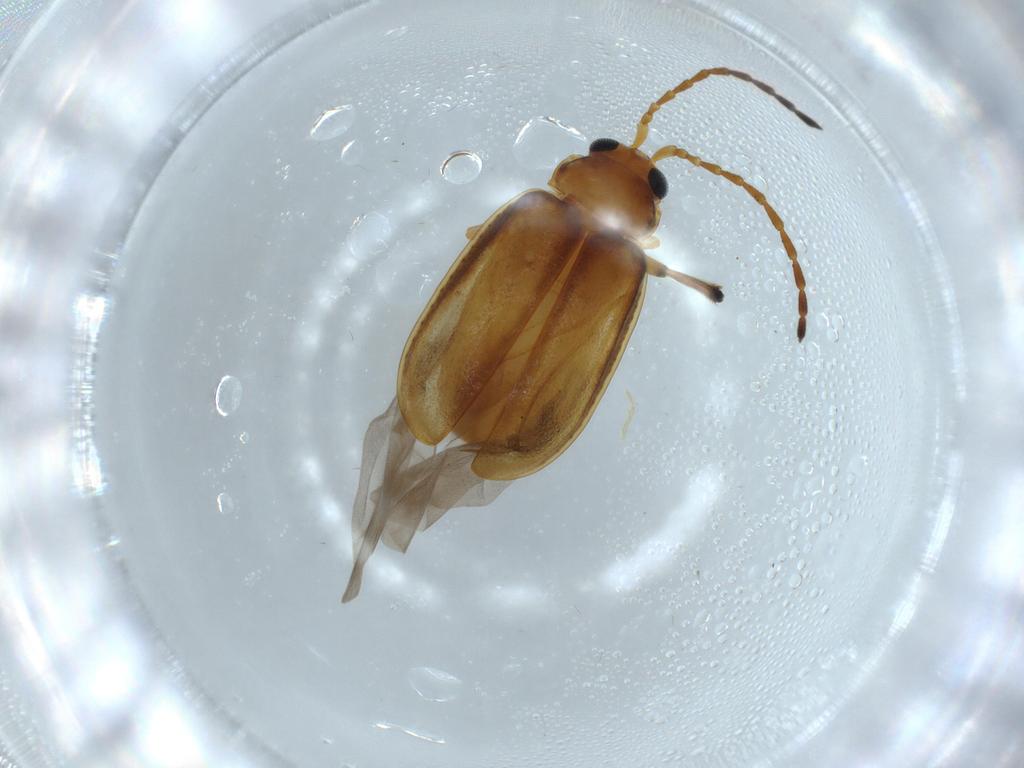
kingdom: Animalia
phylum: Arthropoda
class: Insecta
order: Coleoptera
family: Chrysomelidae
